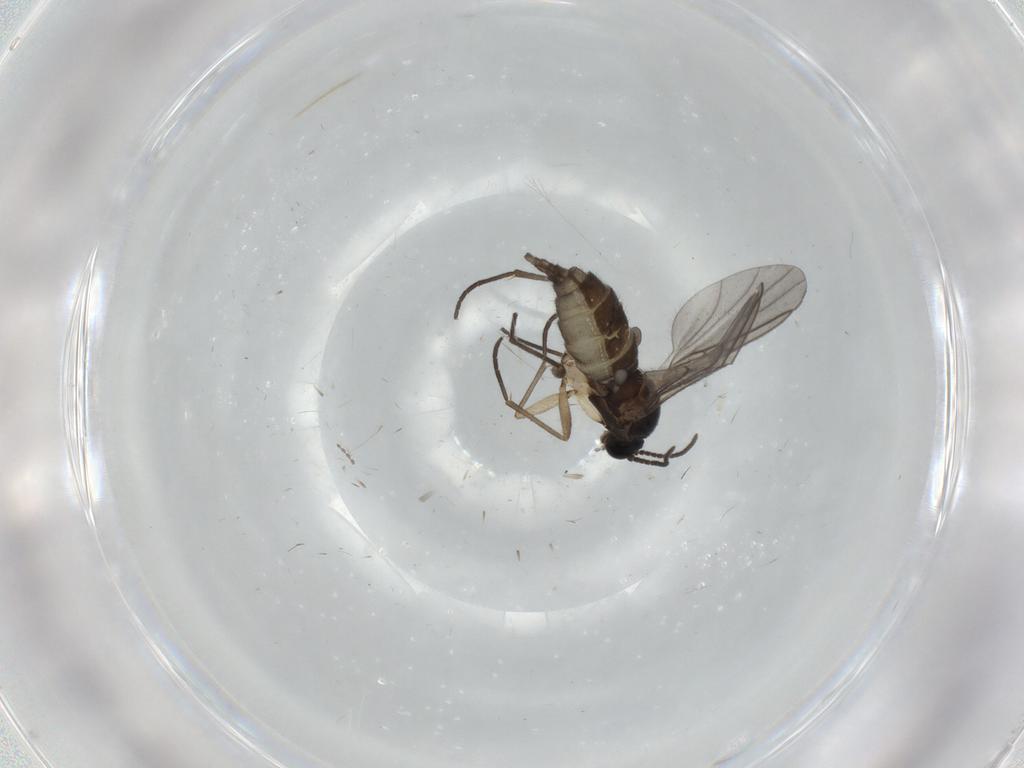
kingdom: Animalia
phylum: Arthropoda
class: Insecta
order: Diptera
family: Sciaridae
